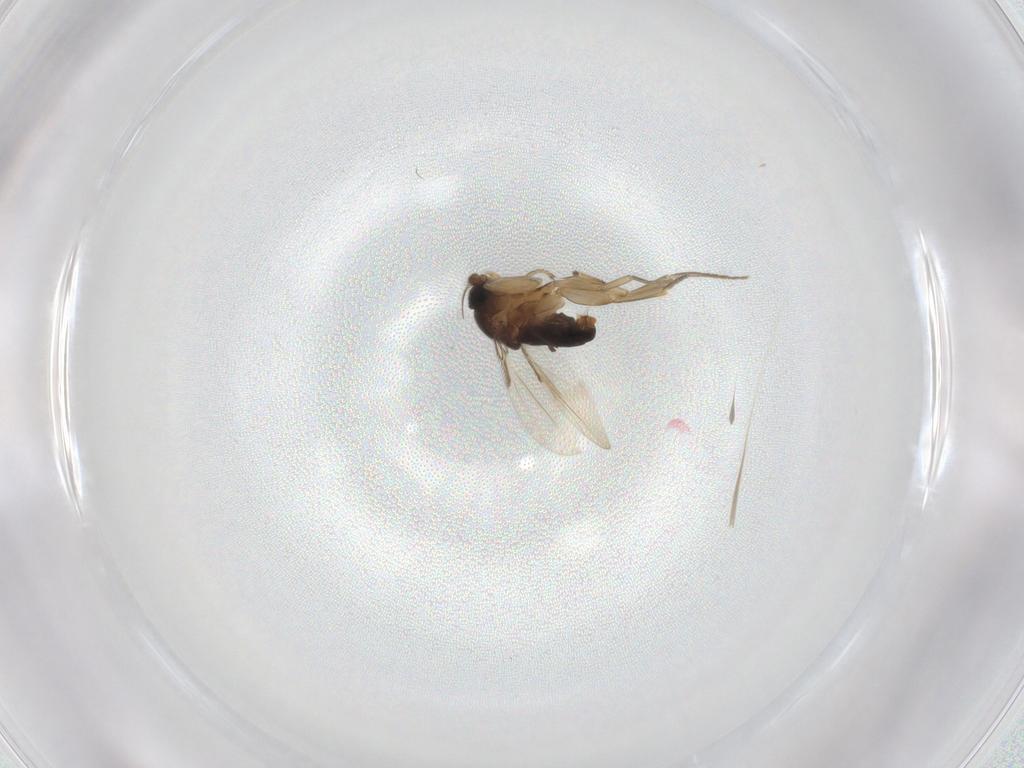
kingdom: Animalia
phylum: Arthropoda
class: Insecta
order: Diptera
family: Phoridae
